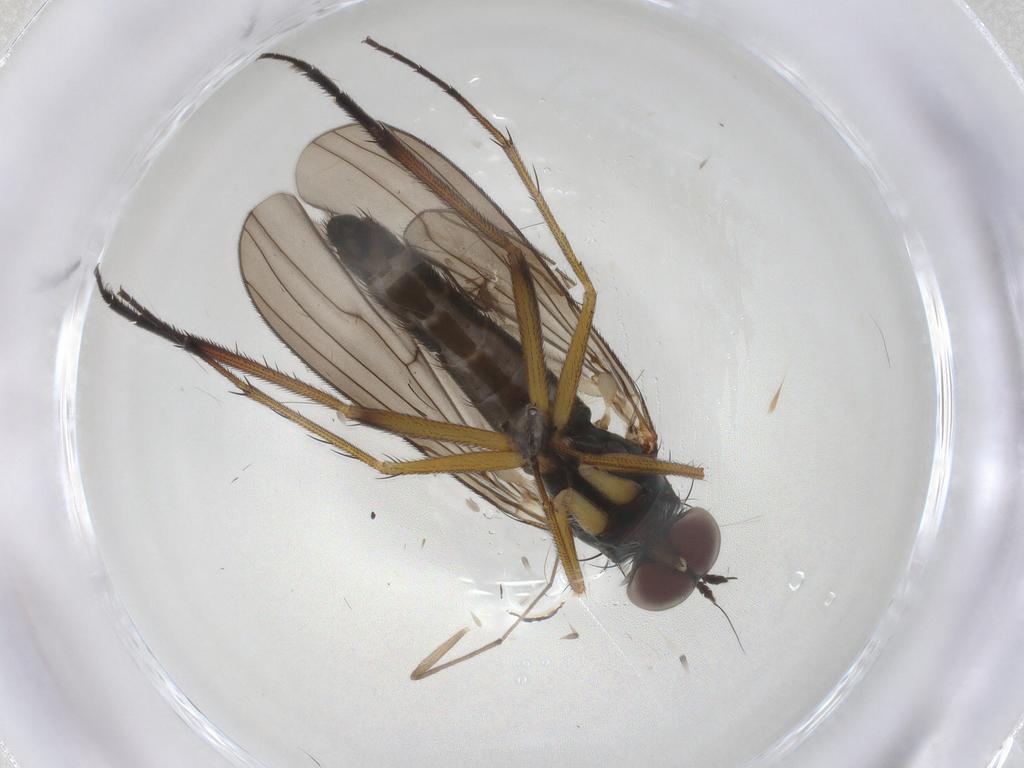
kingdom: Animalia
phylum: Arthropoda
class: Insecta
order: Diptera
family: Dolichopodidae
